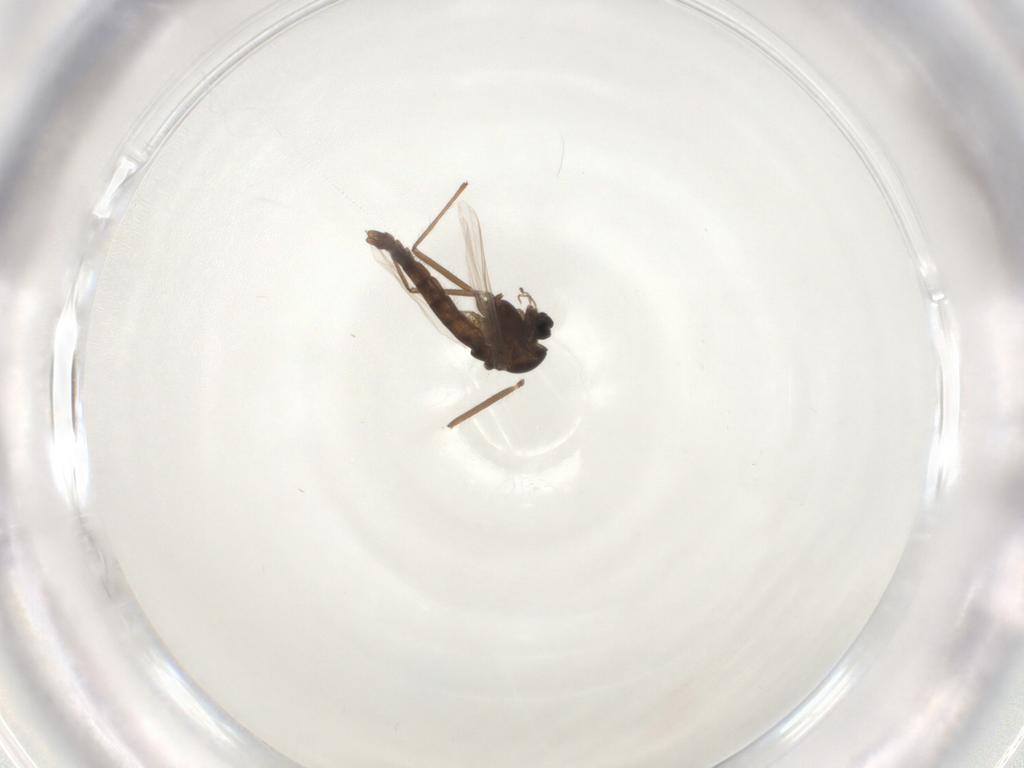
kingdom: Animalia
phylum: Arthropoda
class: Insecta
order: Diptera
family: Chironomidae
